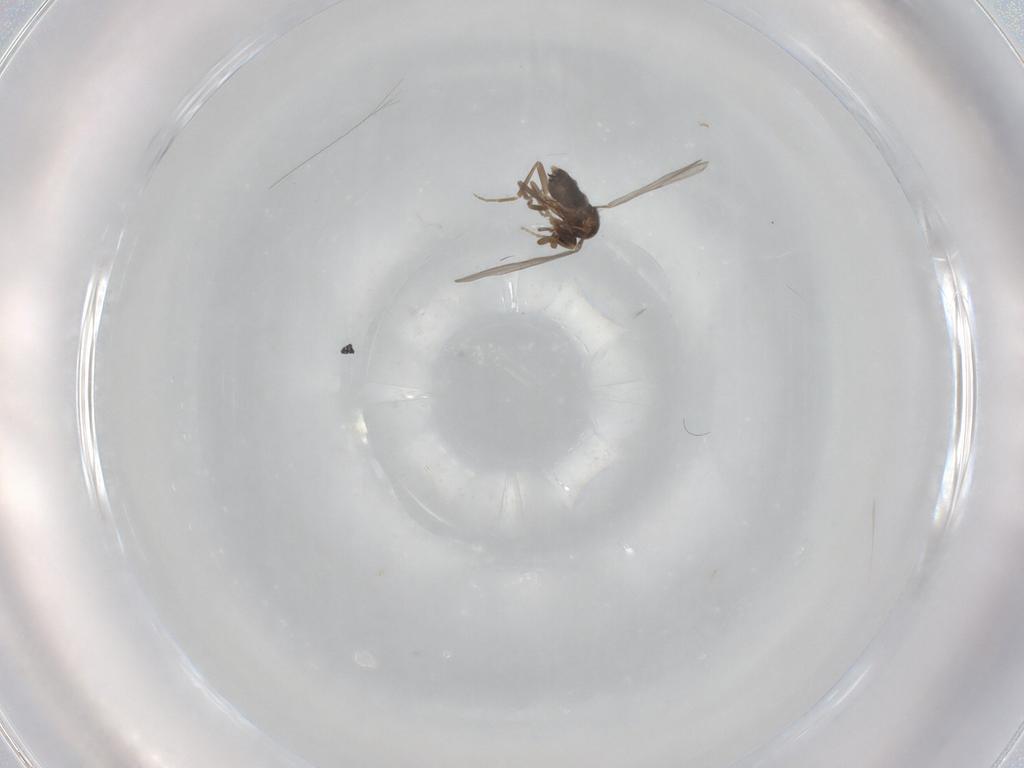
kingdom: Animalia
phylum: Arthropoda
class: Insecta
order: Diptera
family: Phoridae
